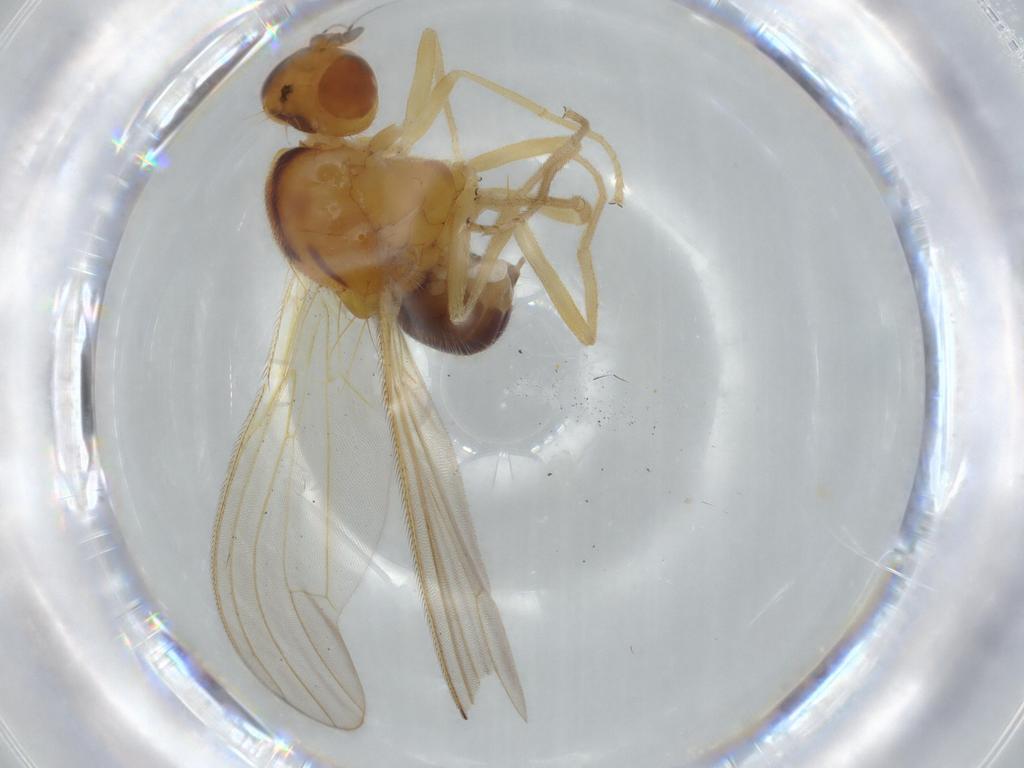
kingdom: Animalia
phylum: Arthropoda
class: Insecta
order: Diptera
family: Psilidae
